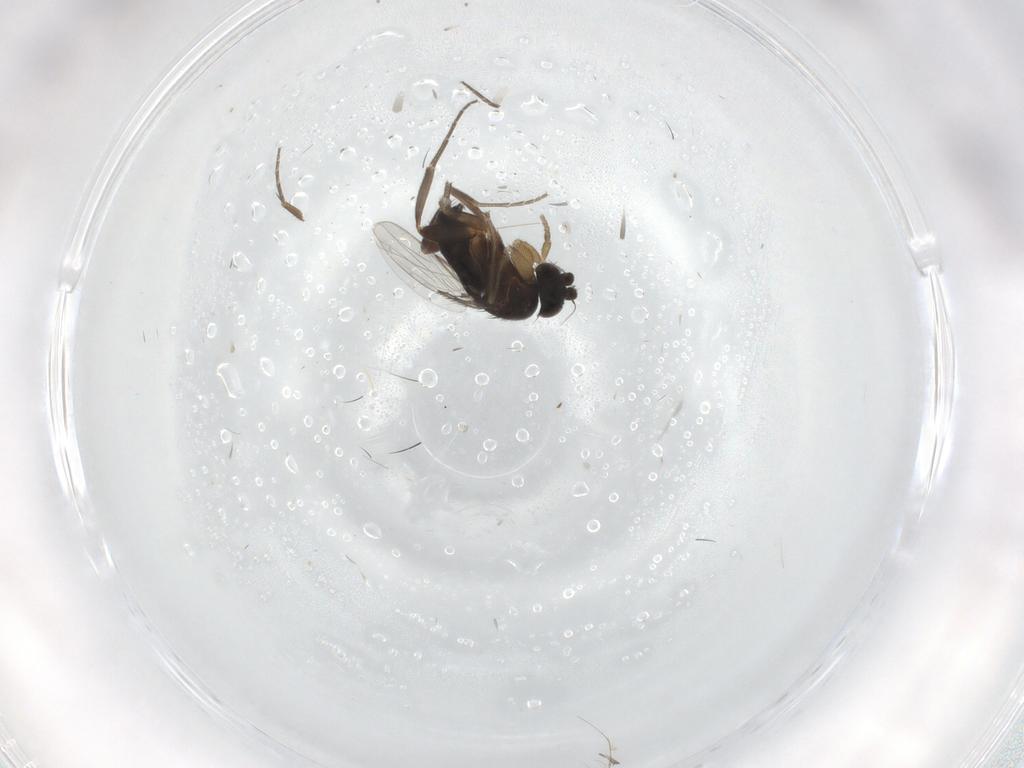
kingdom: Animalia
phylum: Arthropoda
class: Insecta
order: Diptera
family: Phoridae
